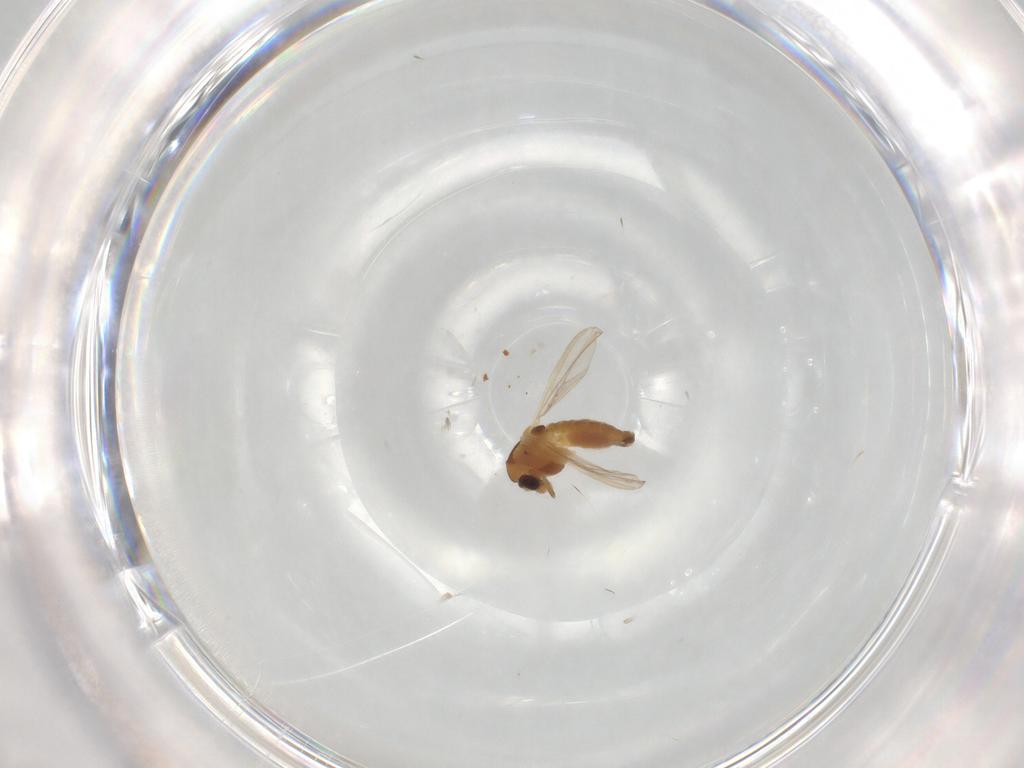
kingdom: Animalia
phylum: Arthropoda
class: Insecta
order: Diptera
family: Chironomidae
